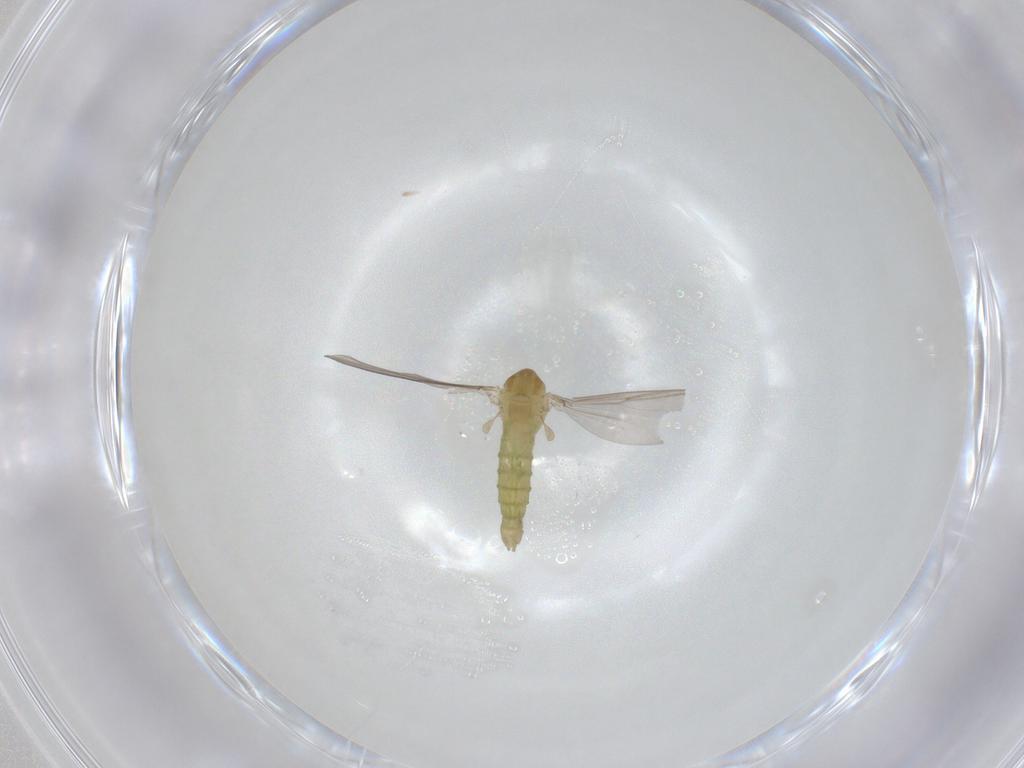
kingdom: Animalia
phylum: Arthropoda
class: Insecta
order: Diptera
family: Chironomidae
